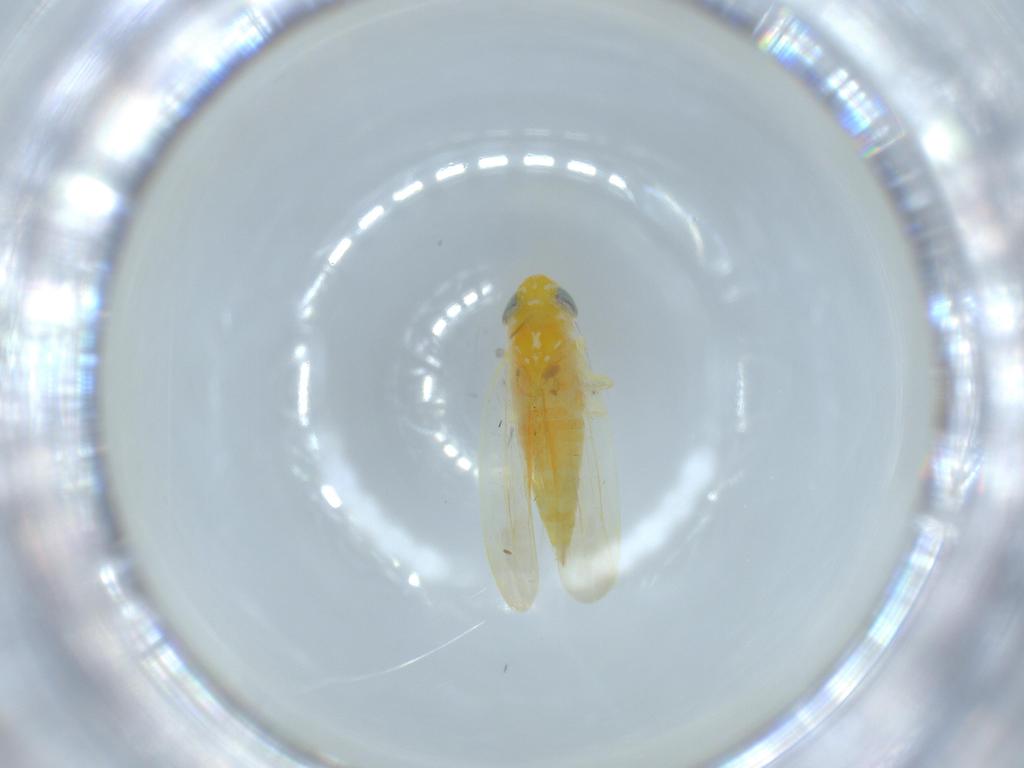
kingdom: Animalia
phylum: Arthropoda
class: Insecta
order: Hemiptera
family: Cicadellidae
